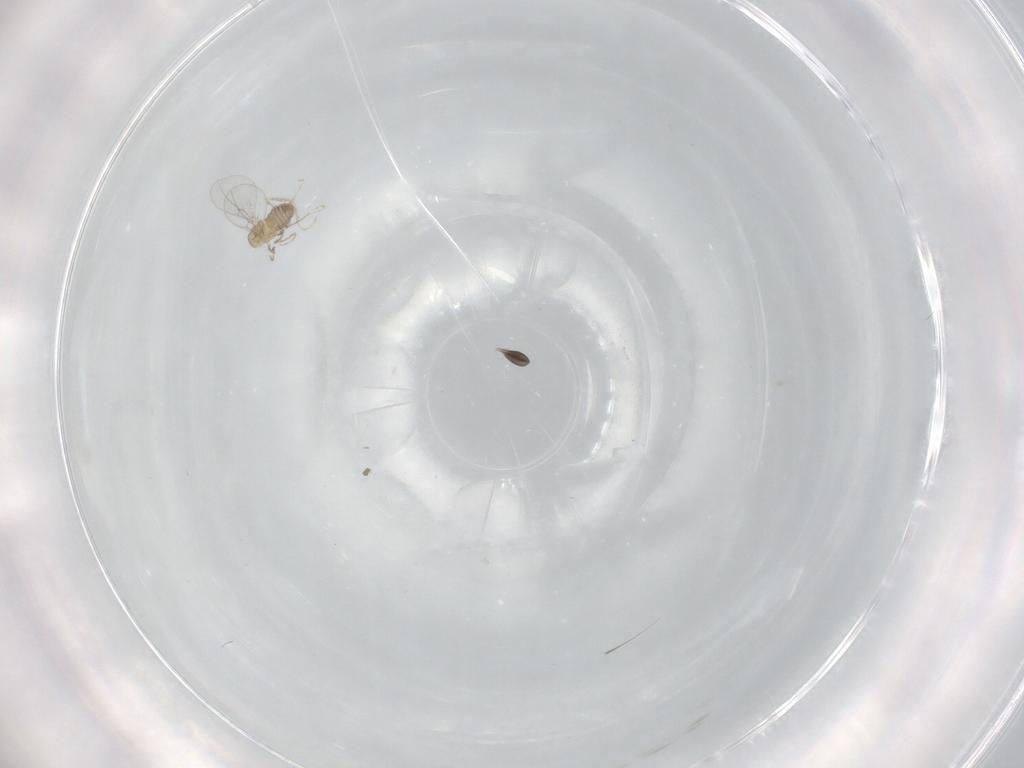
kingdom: Animalia
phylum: Arthropoda
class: Insecta
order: Diptera
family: Sciaridae
